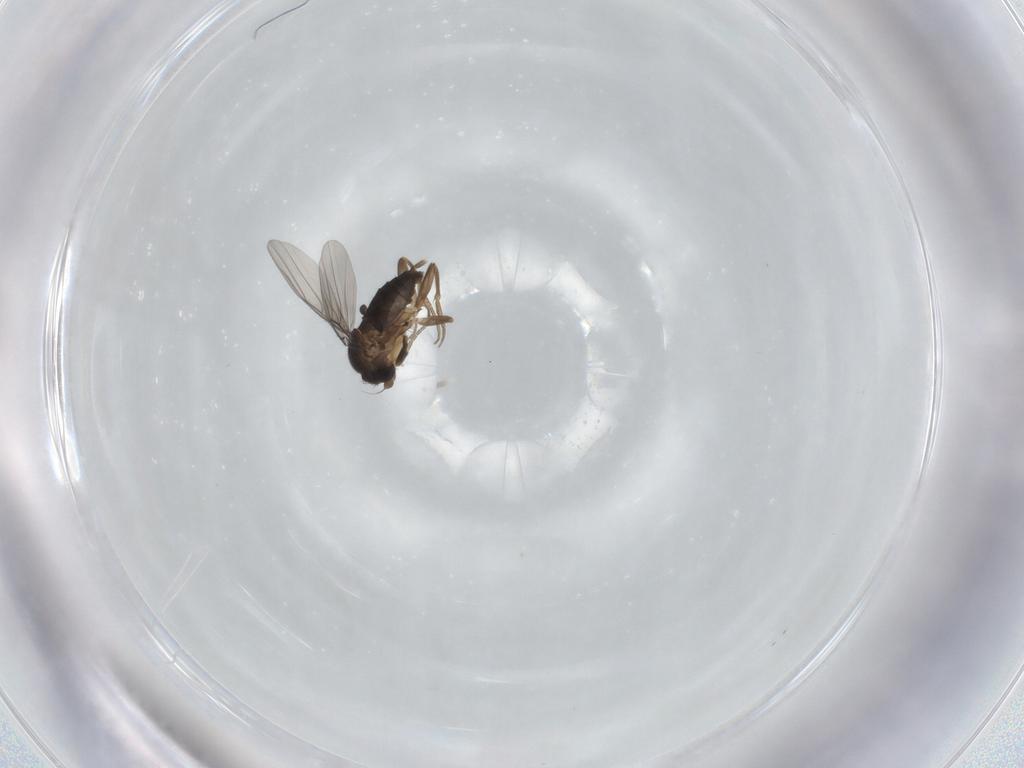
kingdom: Animalia
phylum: Arthropoda
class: Insecta
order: Diptera
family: Phoridae
